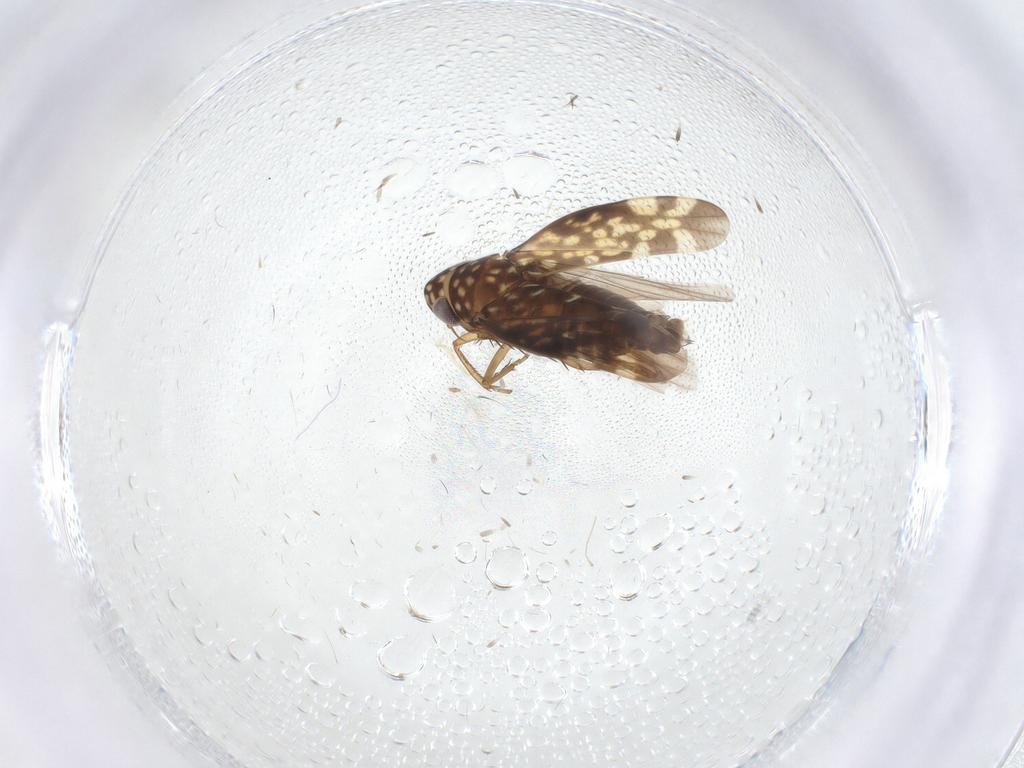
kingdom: Animalia
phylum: Arthropoda
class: Insecta
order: Hemiptera
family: Cicadellidae
